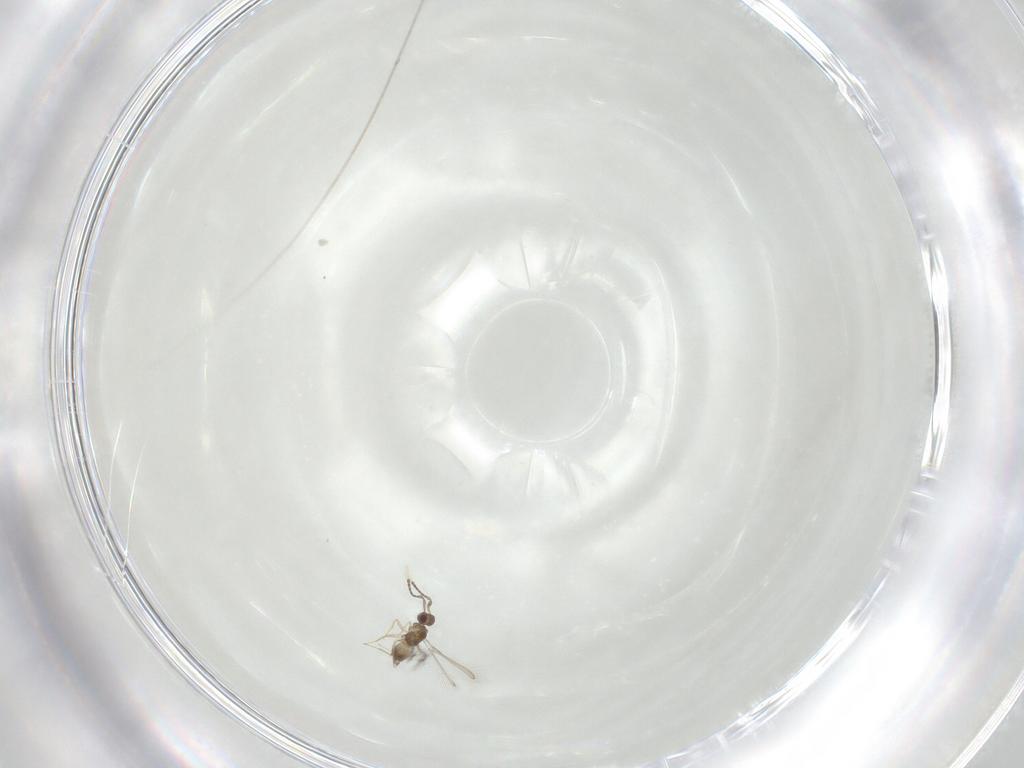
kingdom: Animalia
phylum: Arthropoda
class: Insecta
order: Hymenoptera
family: Mymaridae
